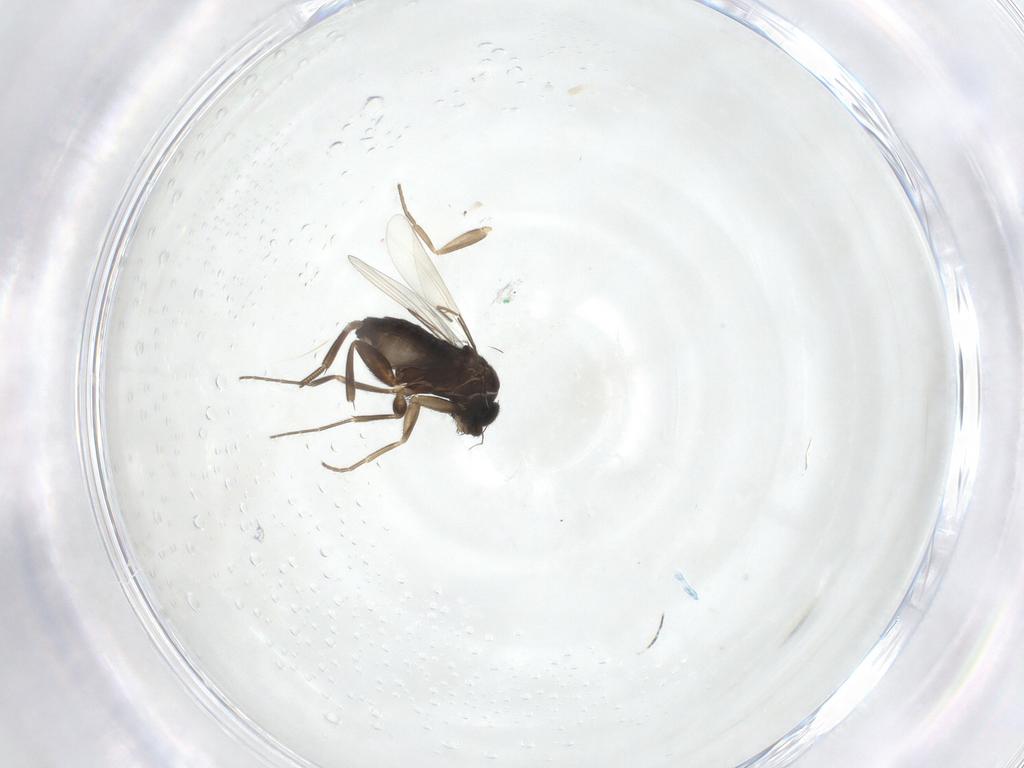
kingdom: Animalia
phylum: Arthropoda
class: Insecta
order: Diptera
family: Phoridae
